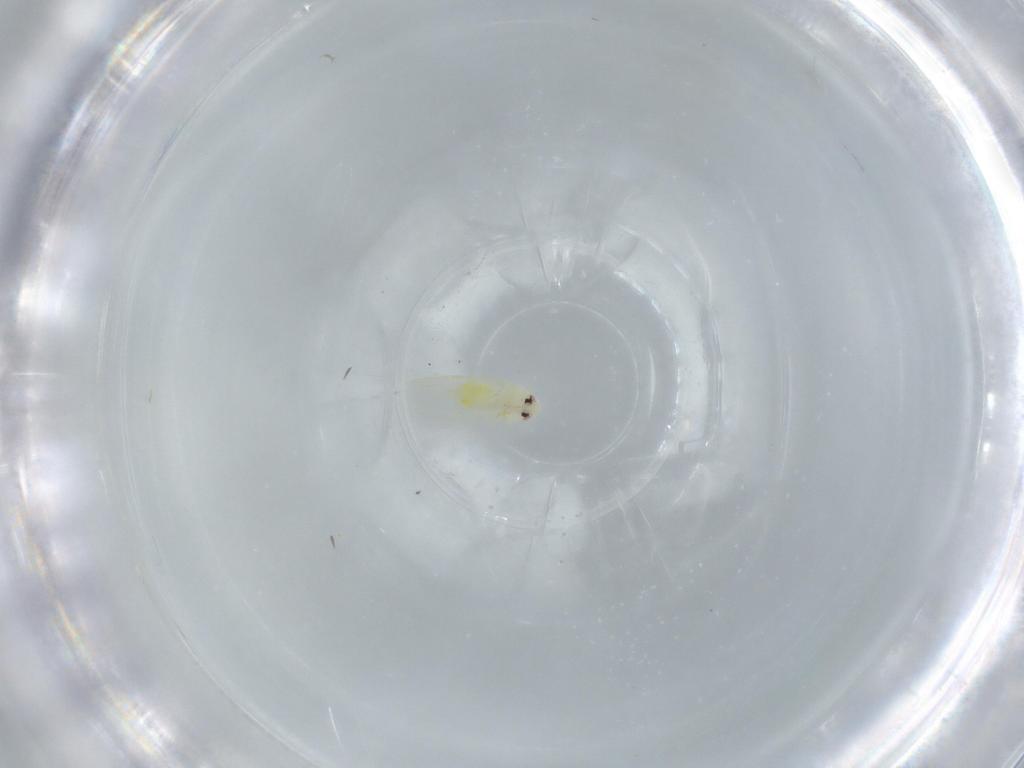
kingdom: Animalia
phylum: Arthropoda
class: Insecta
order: Hemiptera
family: Aleyrodidae
